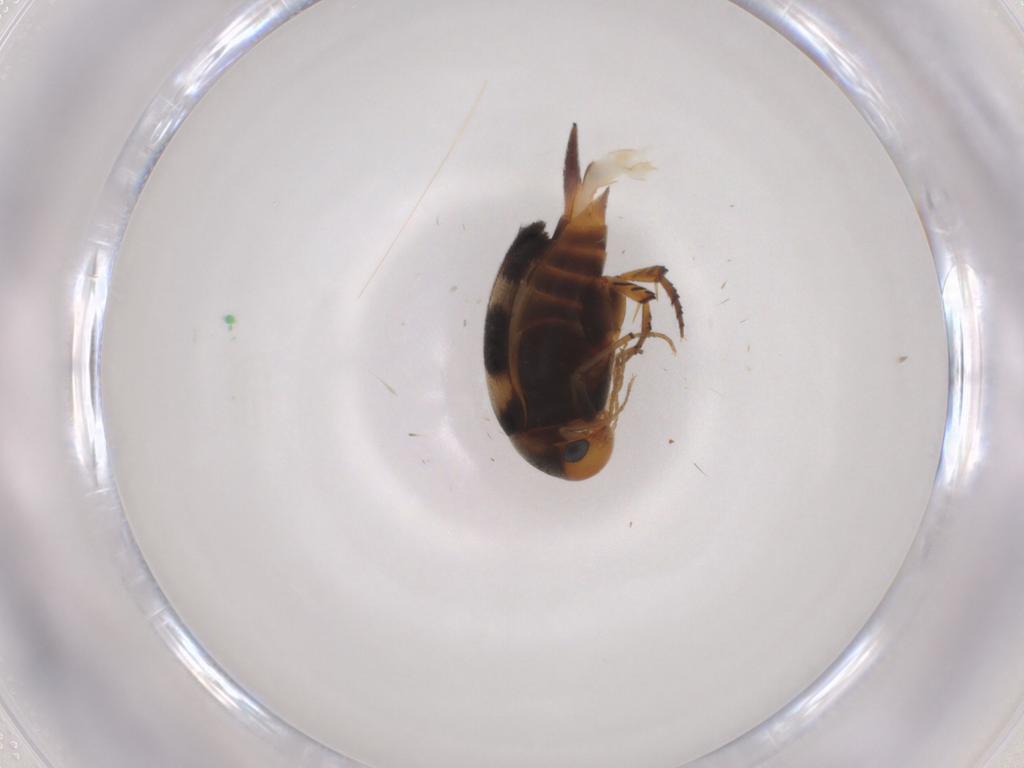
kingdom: Animalia
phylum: Arthropoda
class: Insecta
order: Coleoptera
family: Mordellidae
